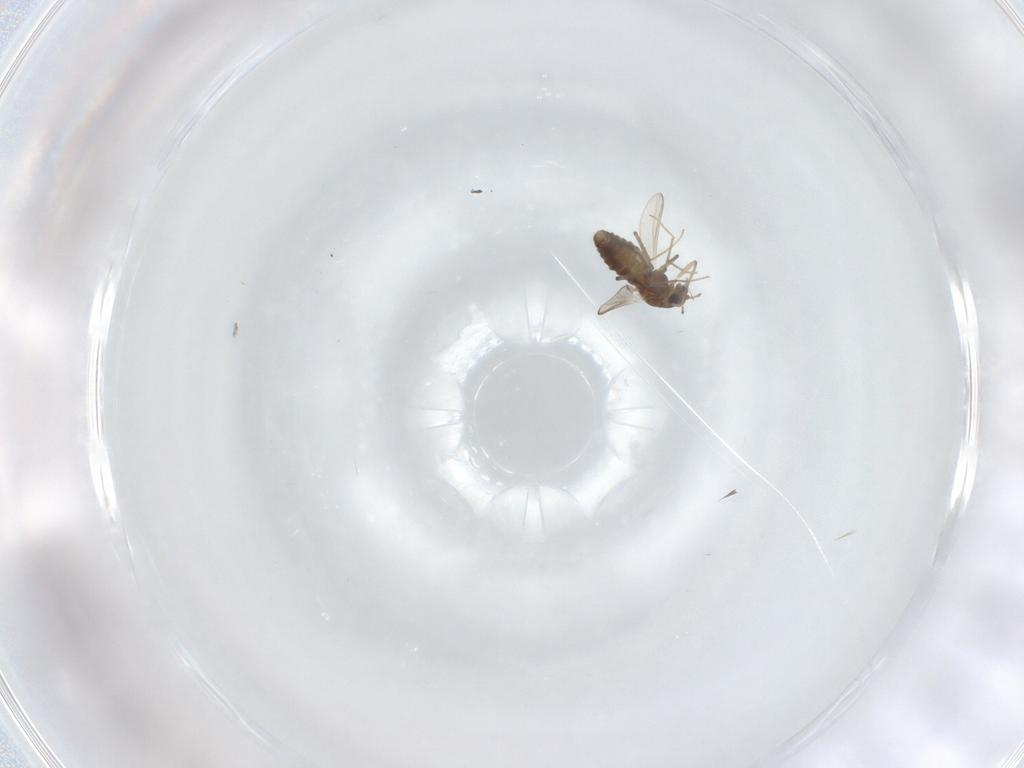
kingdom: Animalia
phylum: Arthropoda
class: Insecta
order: Diptera
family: Chironomidae
